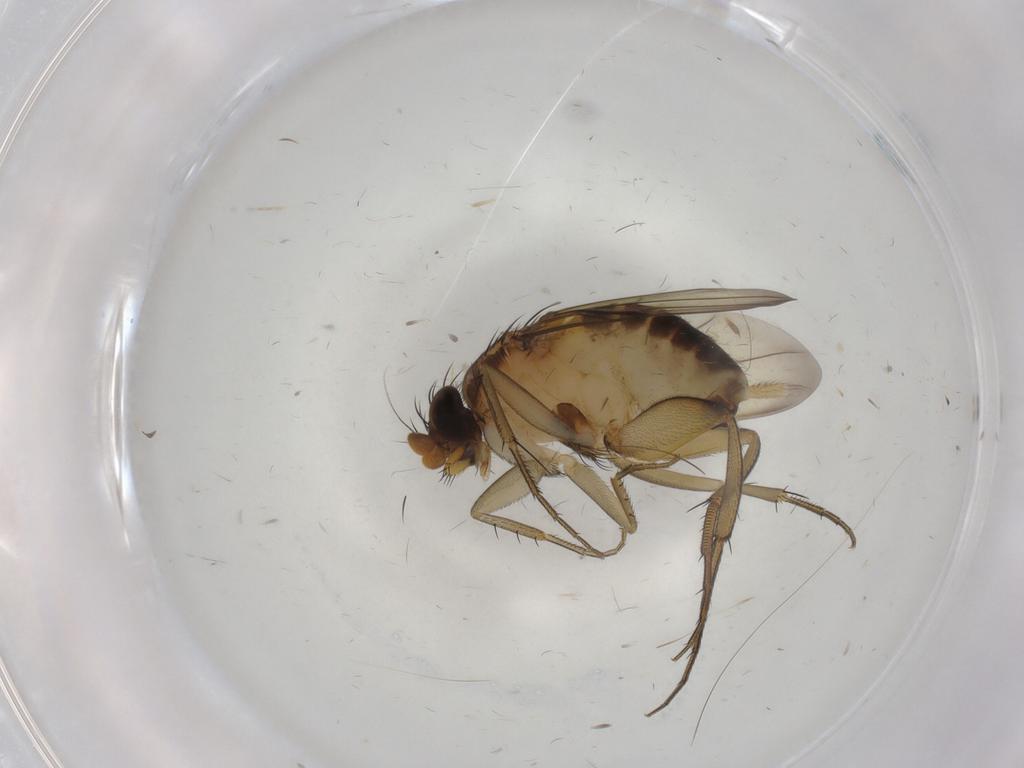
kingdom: Animalia
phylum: Arthropoda
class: Insecta
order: Diptera
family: Phoridae
